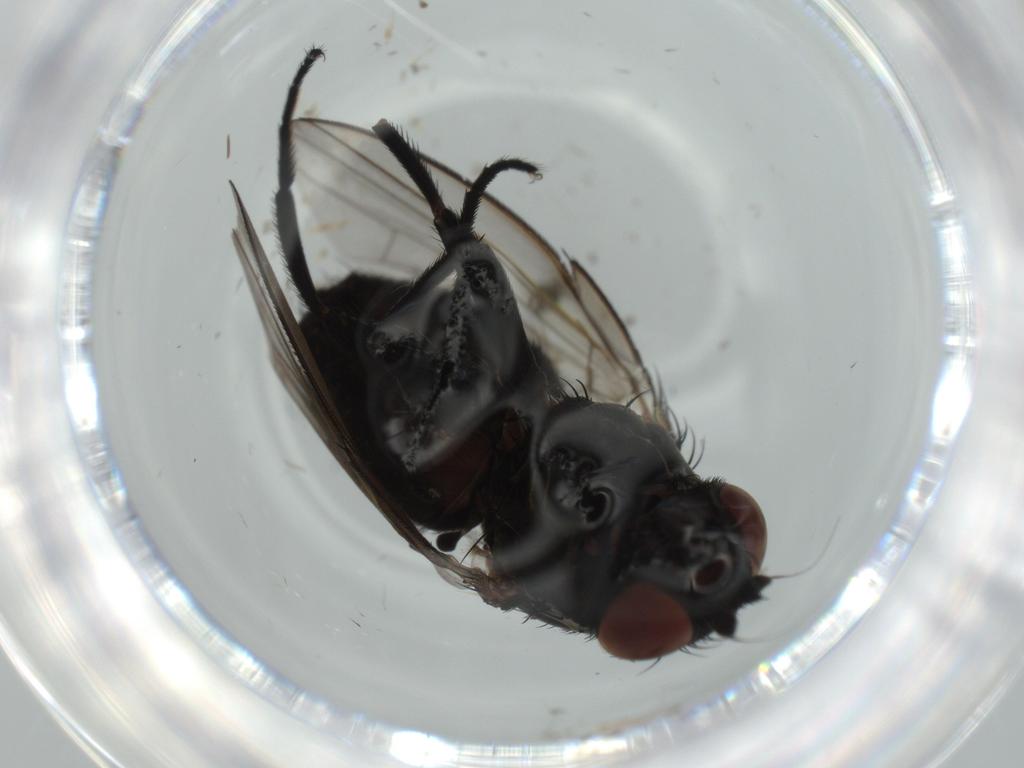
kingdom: Animalia
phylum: Arthropoda
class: Insecta
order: Diptera
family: Milichiidae
